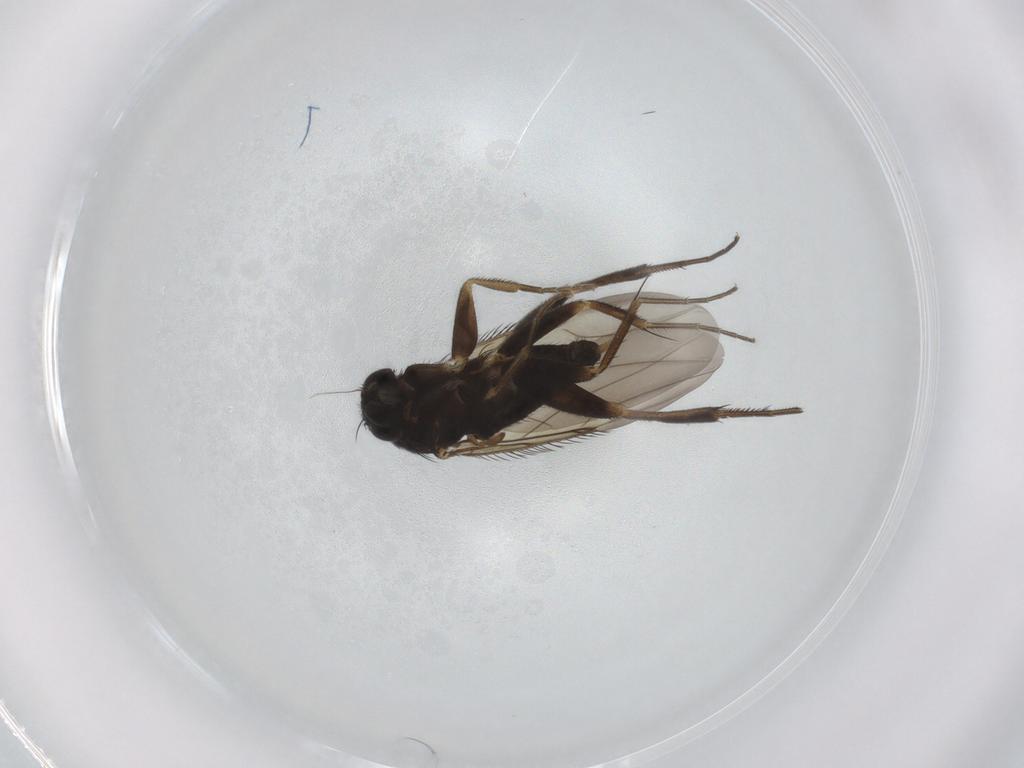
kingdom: Animalia
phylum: Arthropoda
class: Insecta
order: Diptera
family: Phoridae
